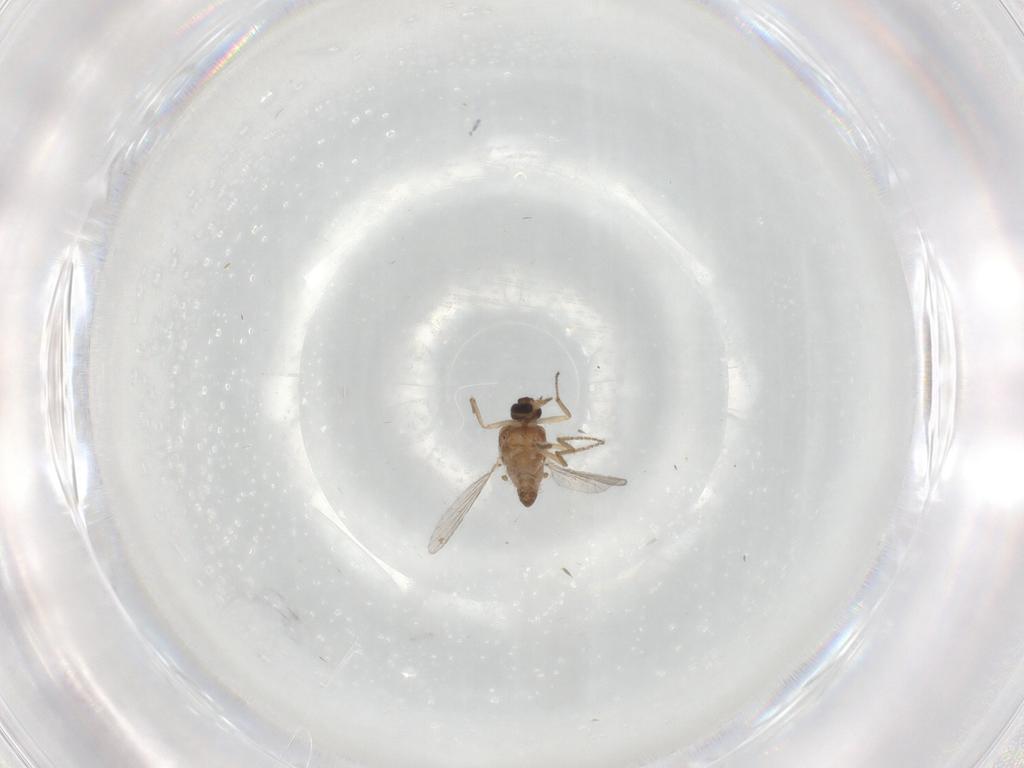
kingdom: Animalia
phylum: Arthropoda
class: Insecta
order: Diptera
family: Ceratopogonidae
